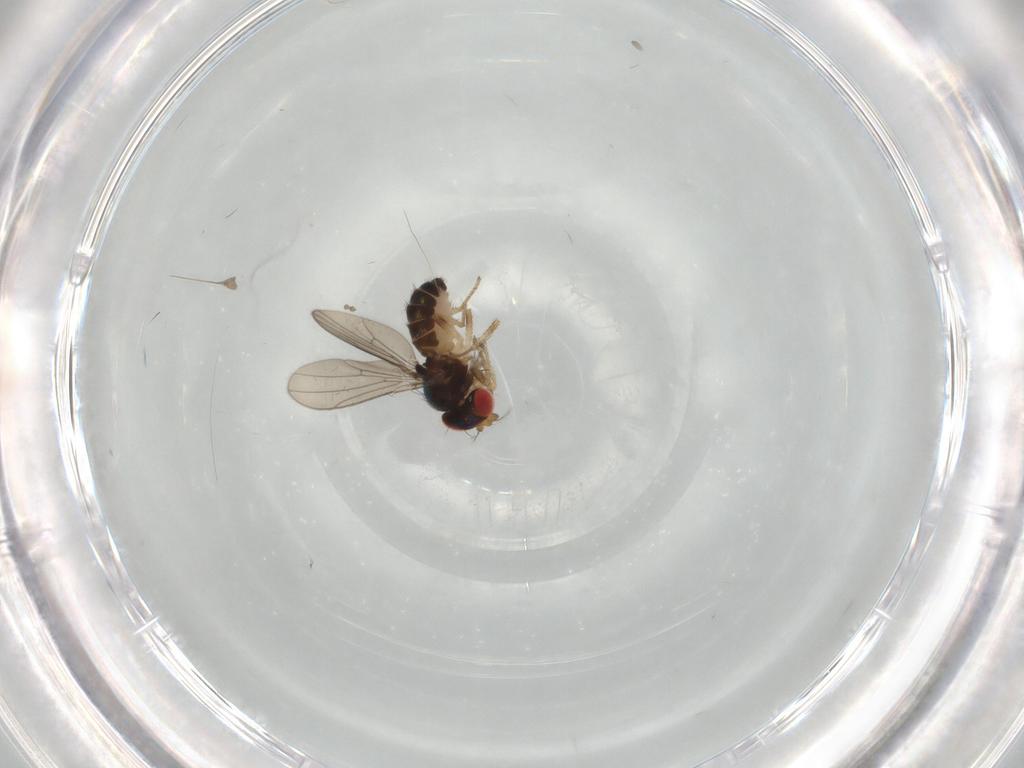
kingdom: Animalia
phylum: Arthropoda
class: Insecta
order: Diptera
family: Drosophilidae
